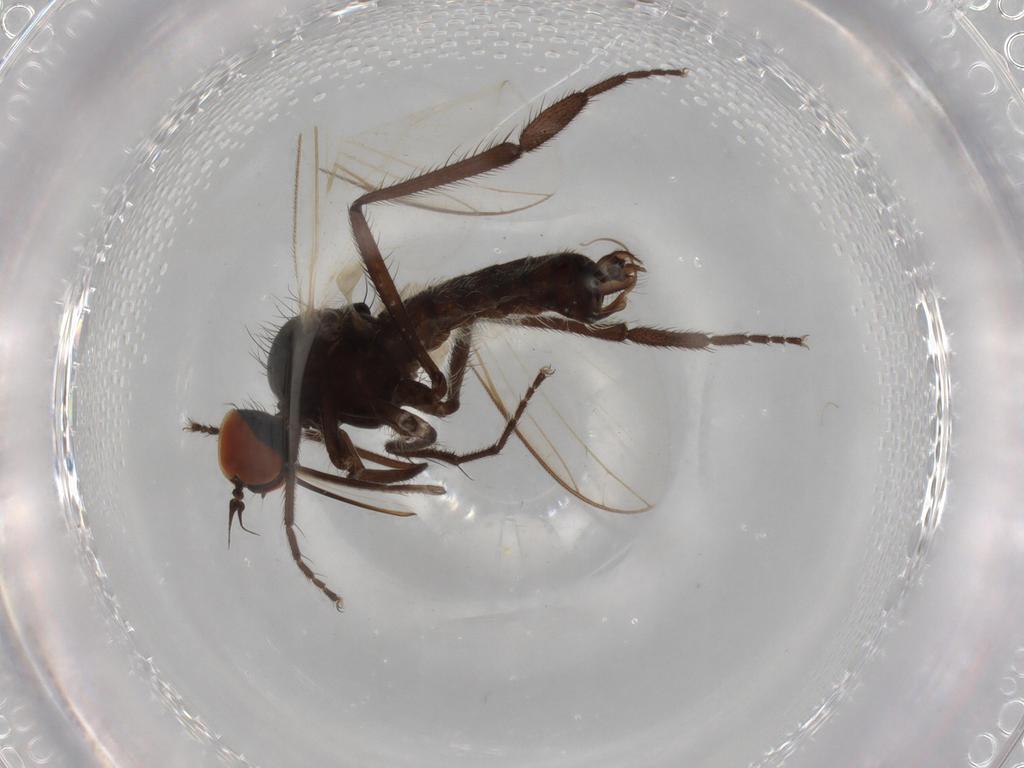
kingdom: Animalia
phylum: Arthropoda
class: Insecta
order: Diptera
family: Empididae
